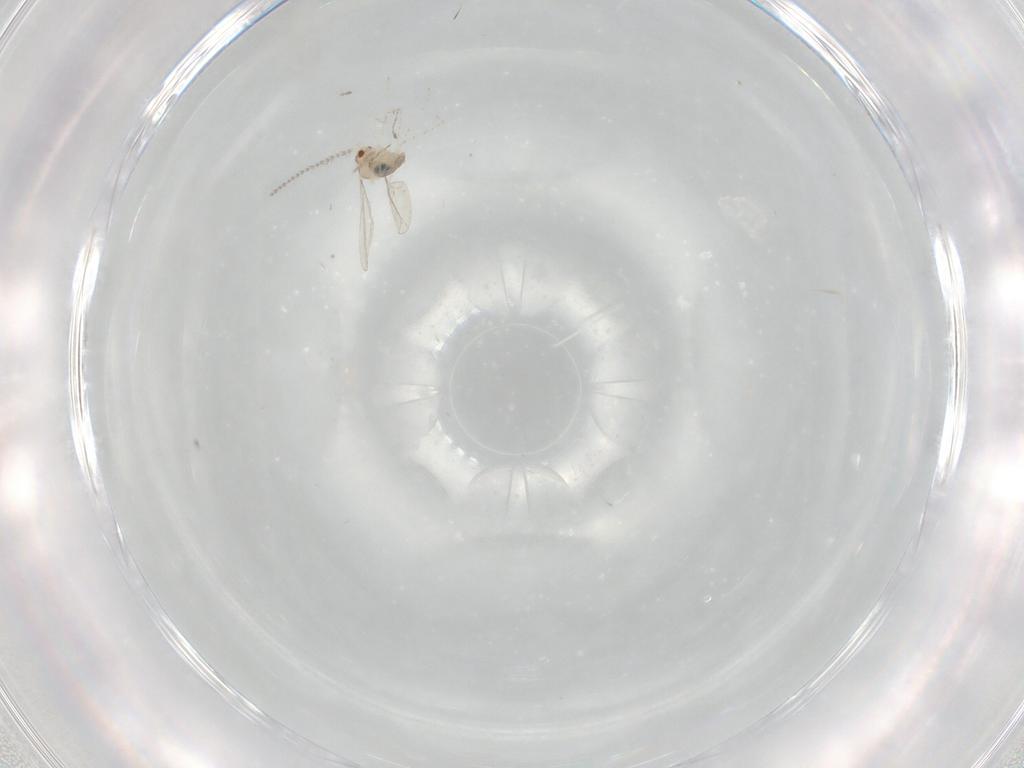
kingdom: Animalia
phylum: Arthropoda
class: Insecta
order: Diptera
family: Cecidomyiidae
